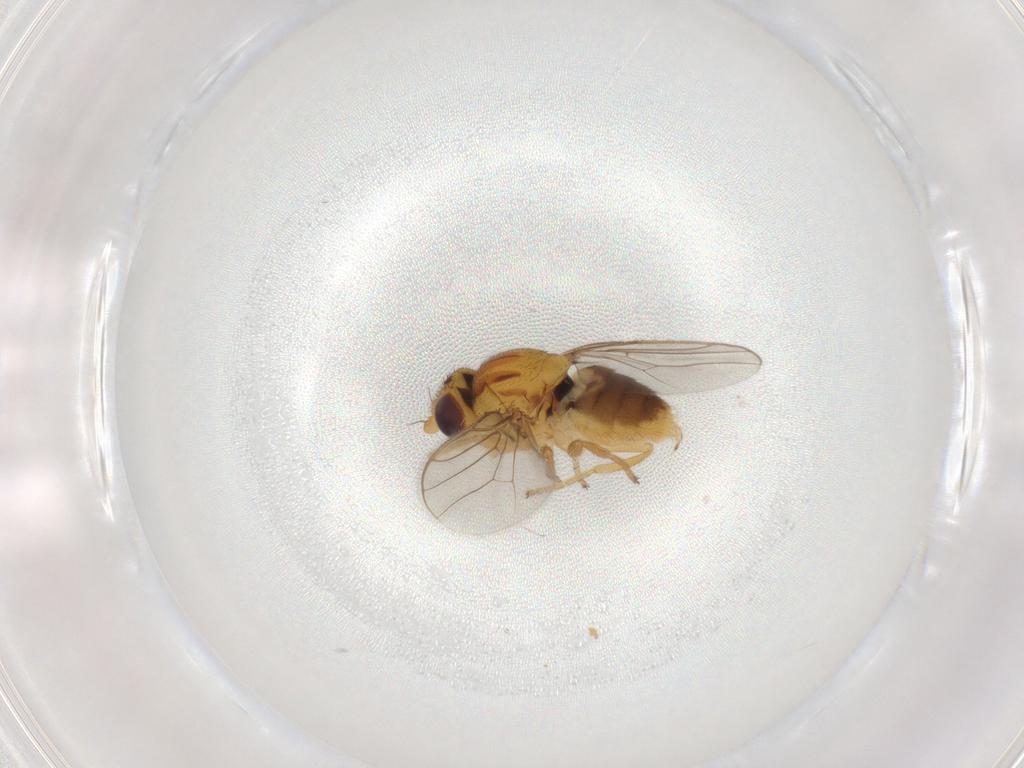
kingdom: Animalia
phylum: Arthropoda
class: Insecta
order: Diptera
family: Chloropidae
